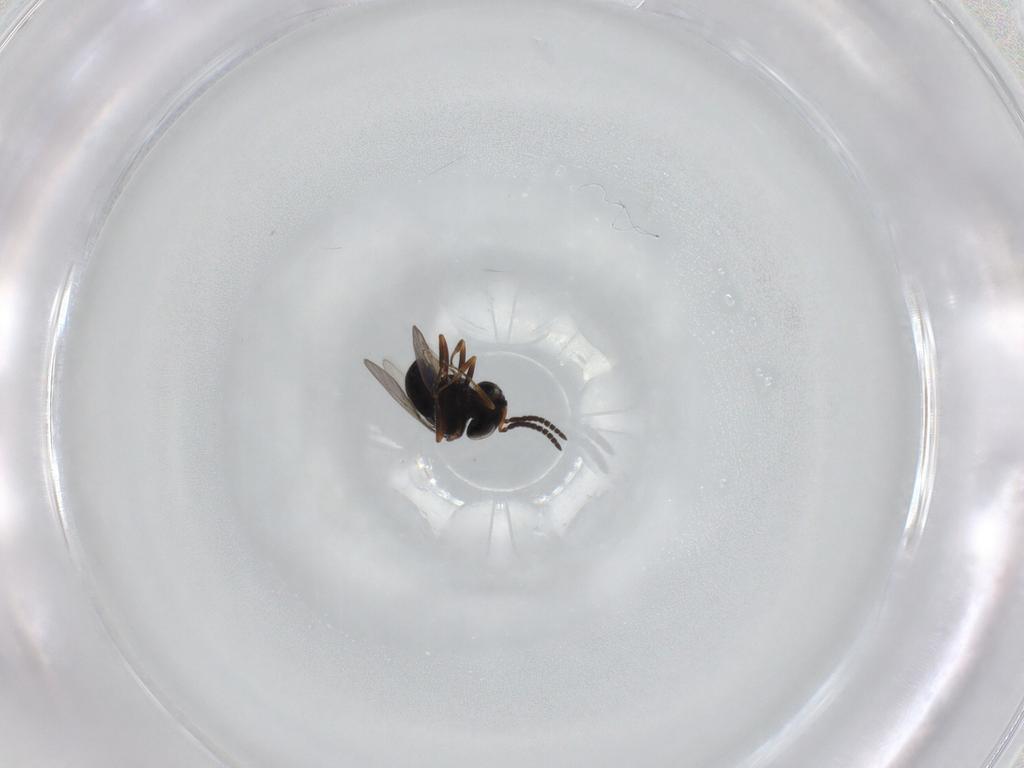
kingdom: Animalia
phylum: Arthropoda
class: Insecta
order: Hymenoptera
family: Scelionidae
